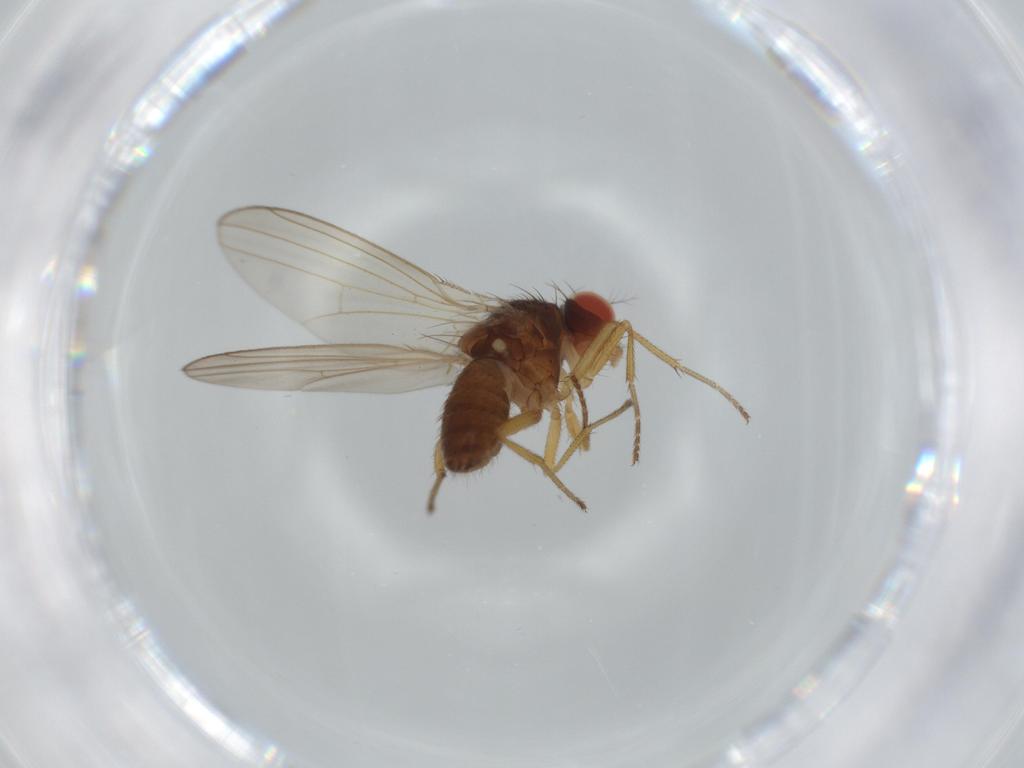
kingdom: Animalia
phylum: Arthropoda
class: Insecta
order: Diptera
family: Drosophilidae
